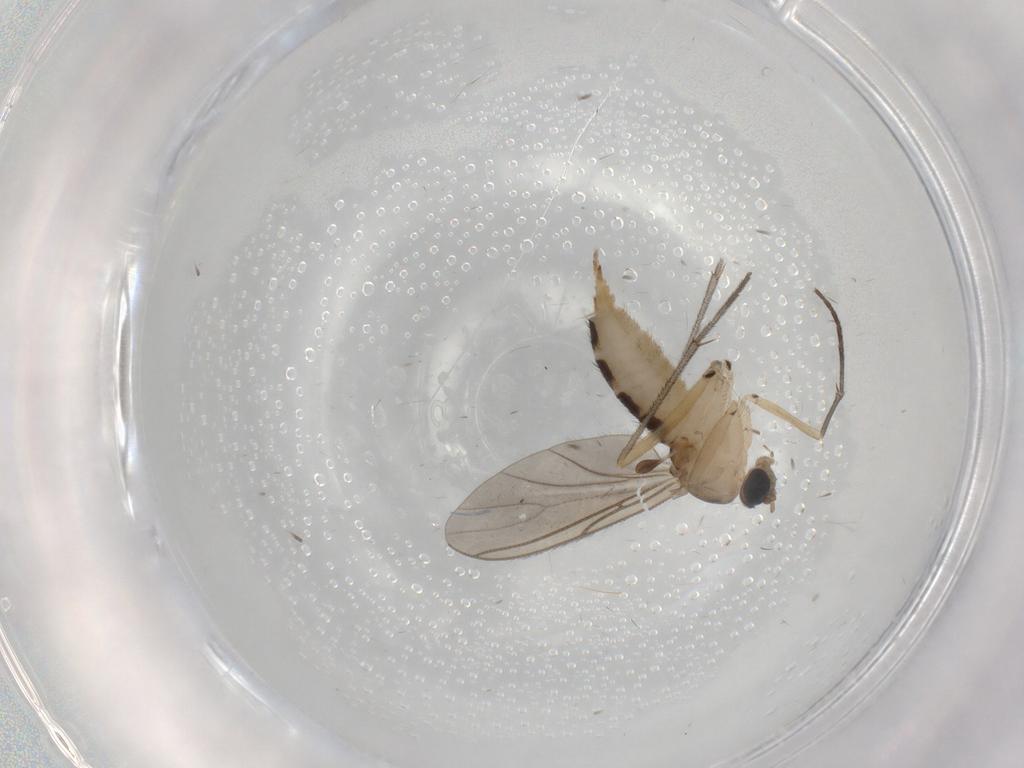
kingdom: Animalia
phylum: Arthropoda
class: Insecta
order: Diptera
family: Sciaridae
